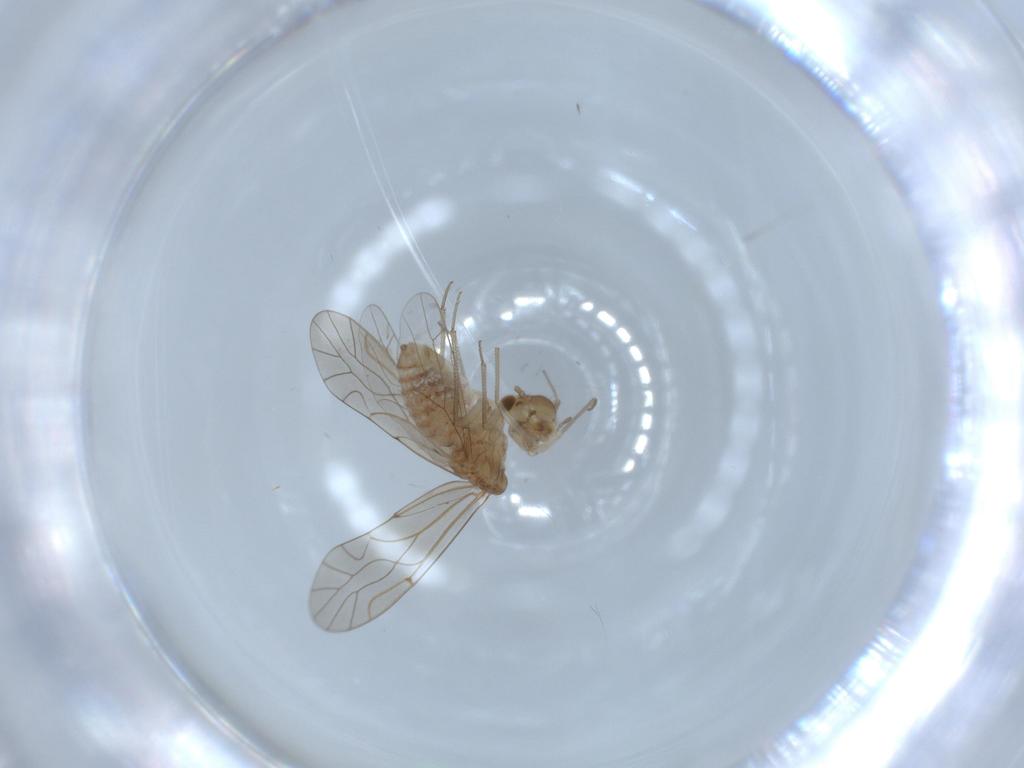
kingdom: Animalia
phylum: Arthropoda
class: Insecta
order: Psocodea
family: Lachesillidae
